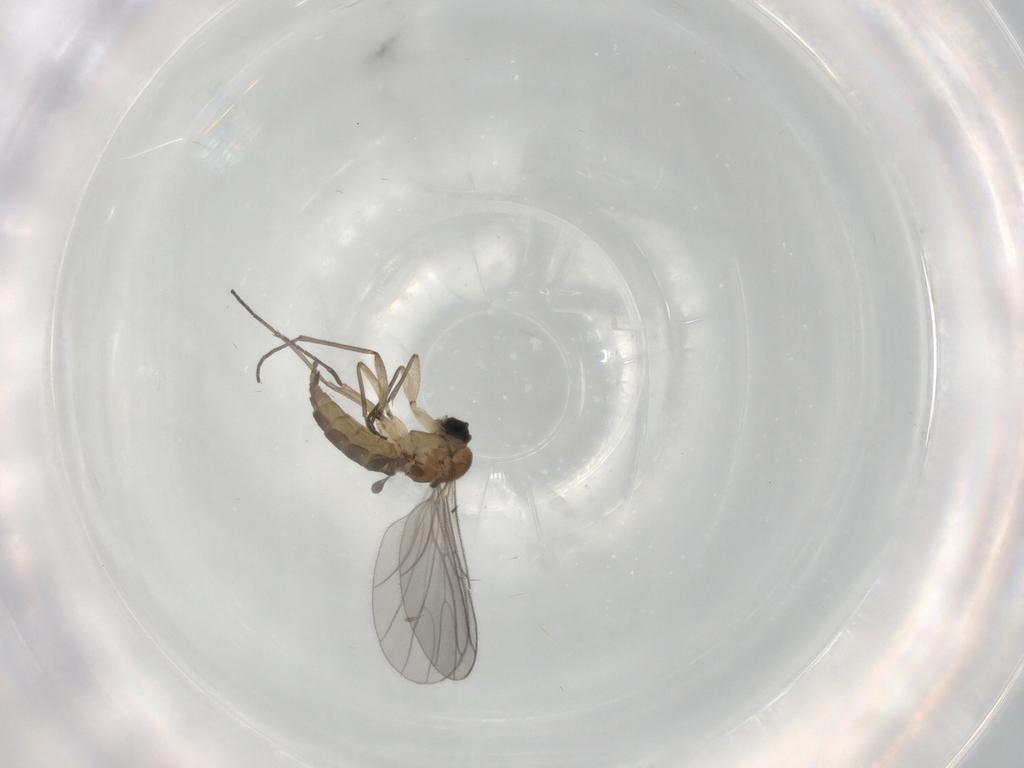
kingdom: Animalia
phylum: Arthropoda
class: Insecta
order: Diptera
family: Sciaridae
